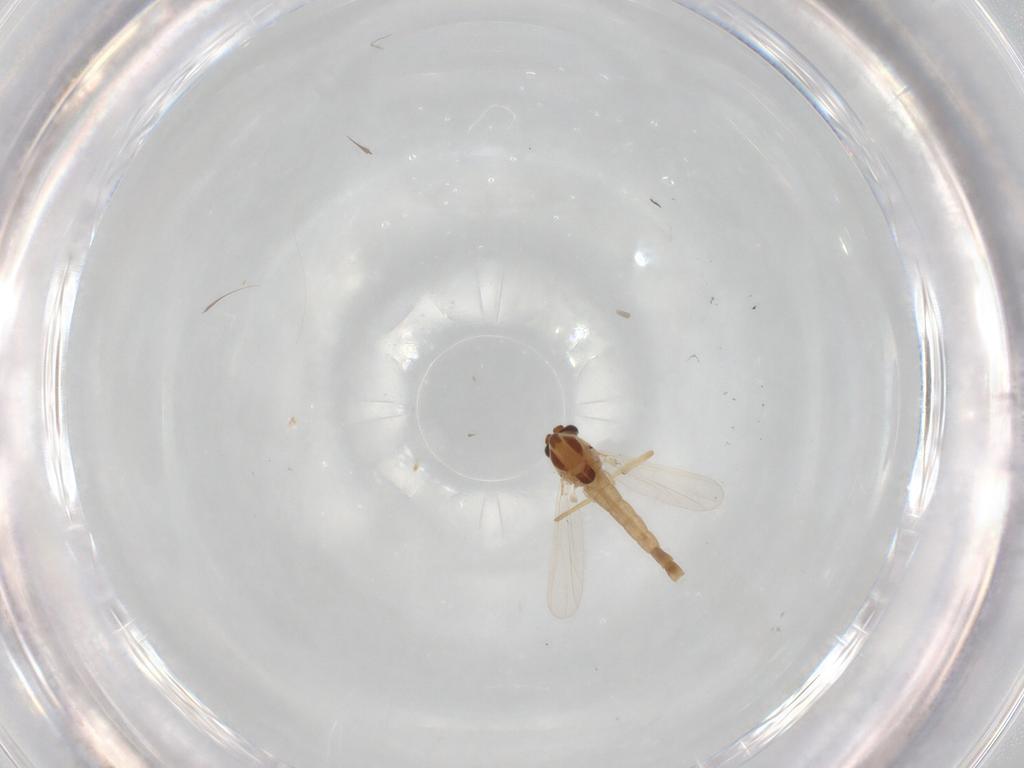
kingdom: Animalia
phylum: Arthropoda
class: Insecta
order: Diptera
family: Chironomidae
